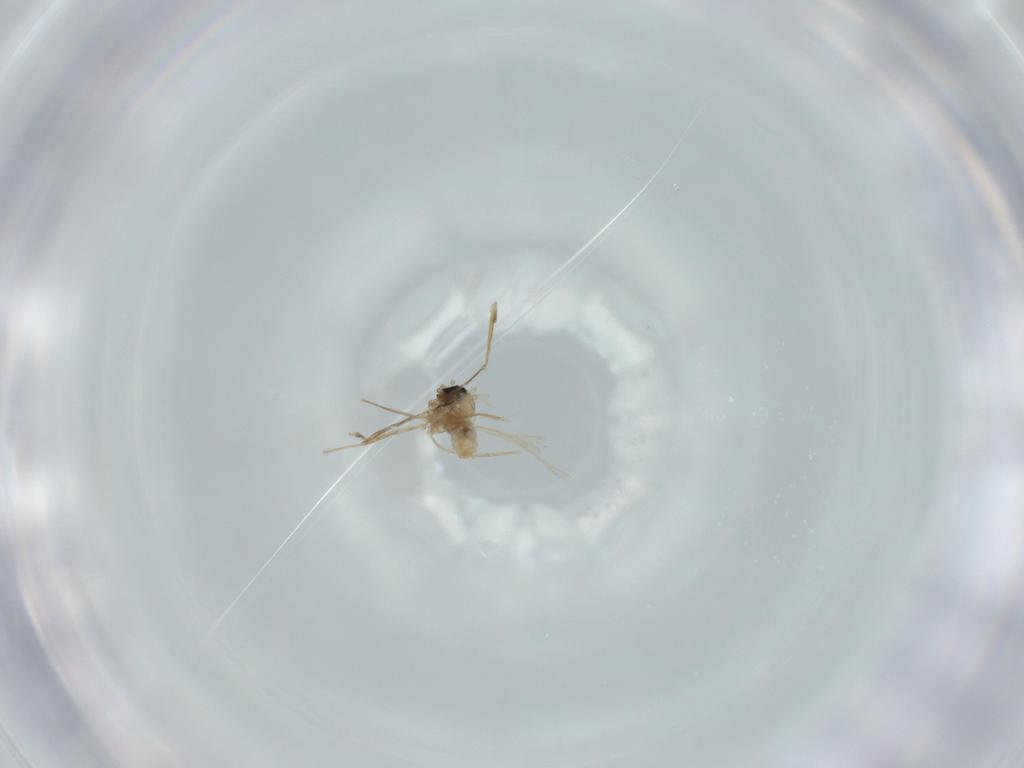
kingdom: Animalia
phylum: Arthropoda
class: Insecta
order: Diptera
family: Cecidomyiidae
